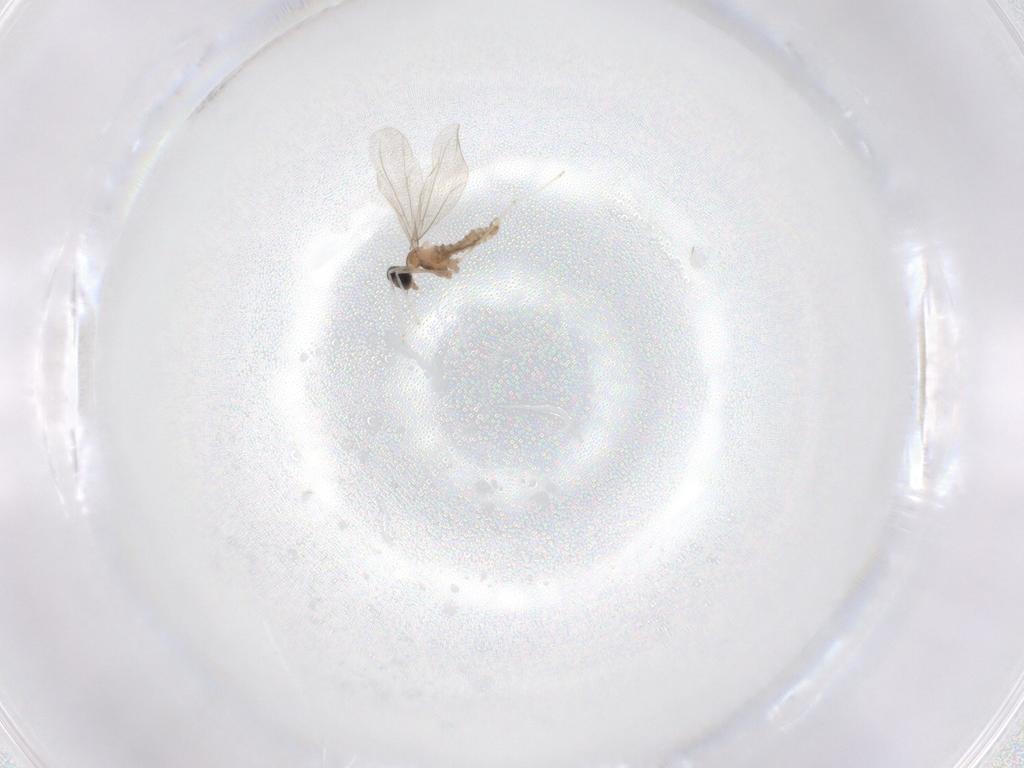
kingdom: Animalia
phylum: Arthropoda
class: Insecta
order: Diptera
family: Cecidomyiidae
